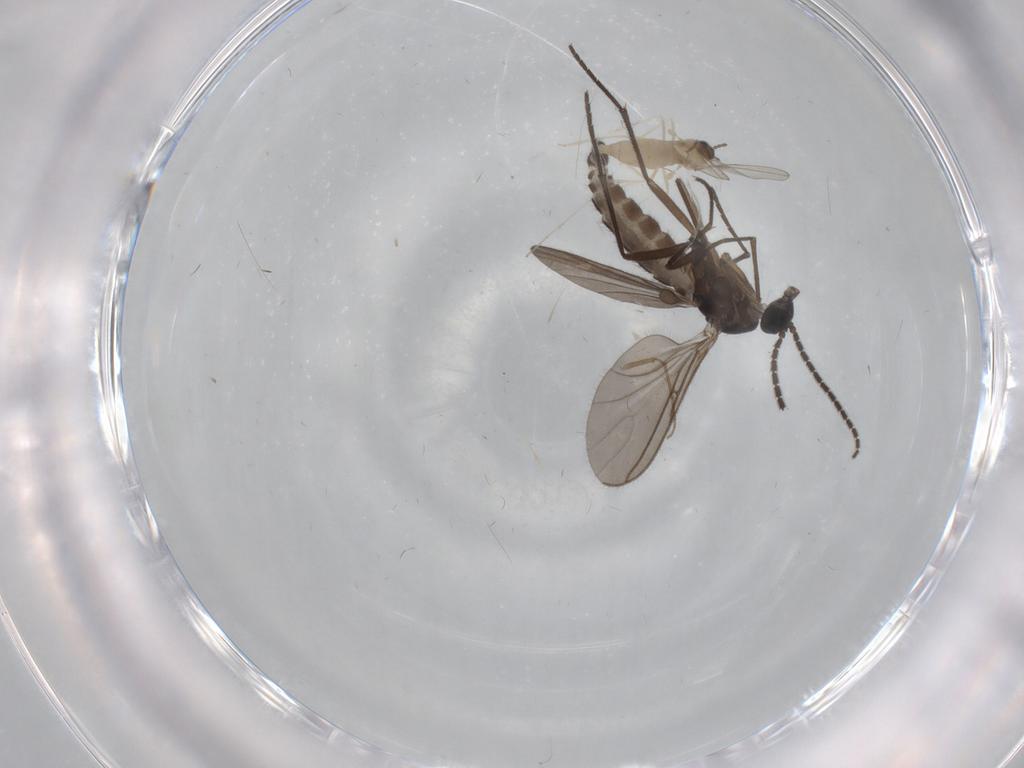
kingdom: Animalia
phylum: Arthropoda
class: Insecta
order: Diptera
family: Sciaridae
